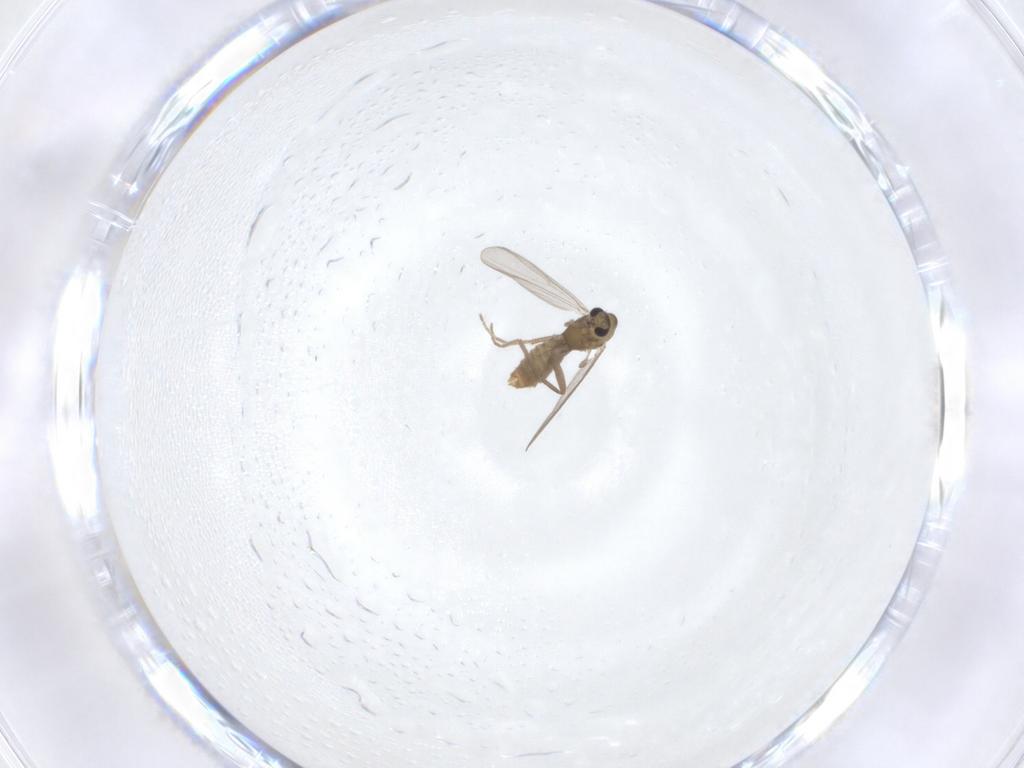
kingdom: Animalia
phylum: Arthropoda
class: Insecta
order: Diptera
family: Chironomidae
